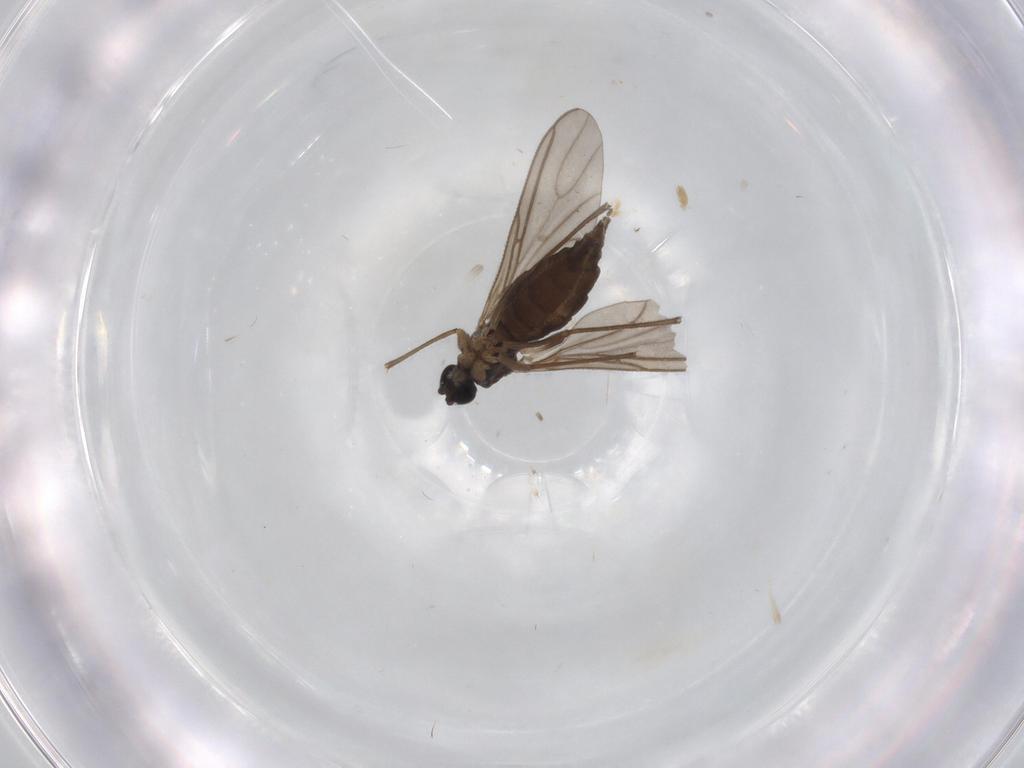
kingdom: Animalia
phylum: Arthropoda
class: Insecta
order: Diptera
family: Sciaridae
